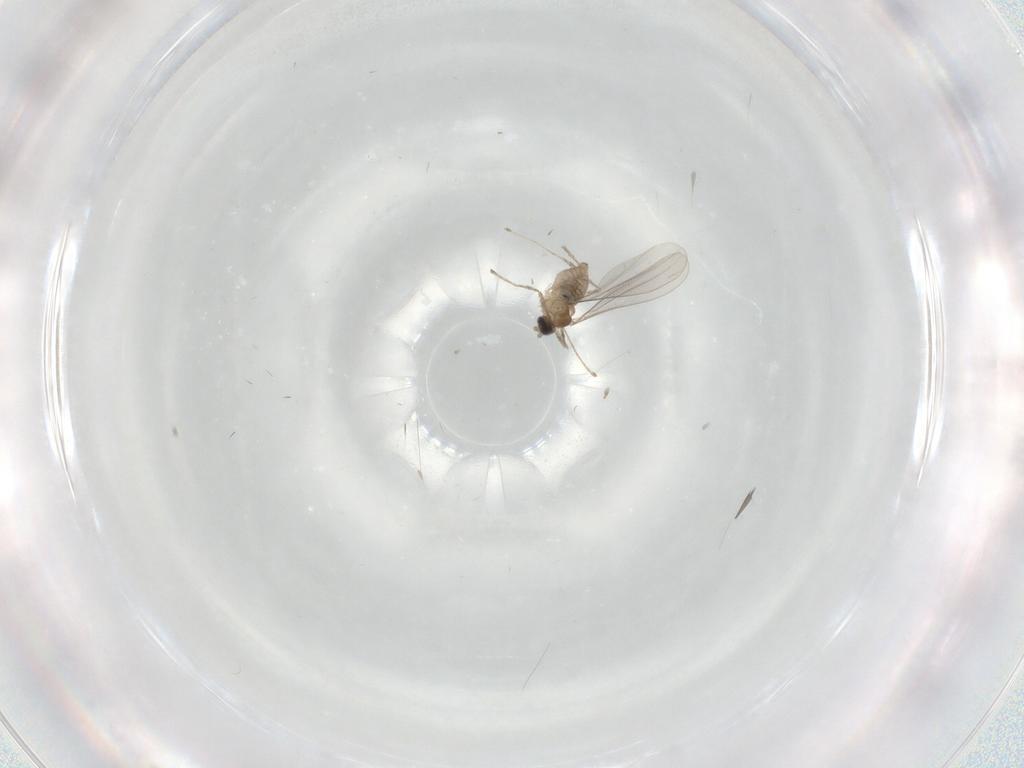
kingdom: Animalia
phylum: Arthropoda
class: Insecta
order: Diptera
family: Cecidomyiidae
